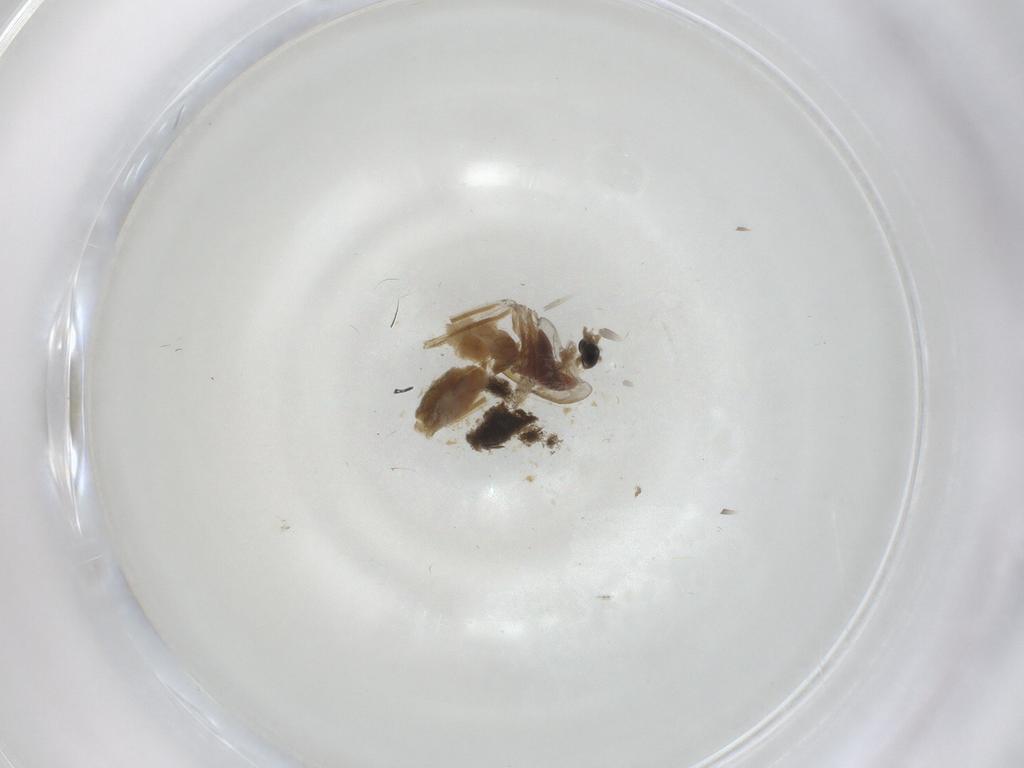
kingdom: Animalia
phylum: Arthropoda
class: Insecta
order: Diptera
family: Ceratopogonidae
